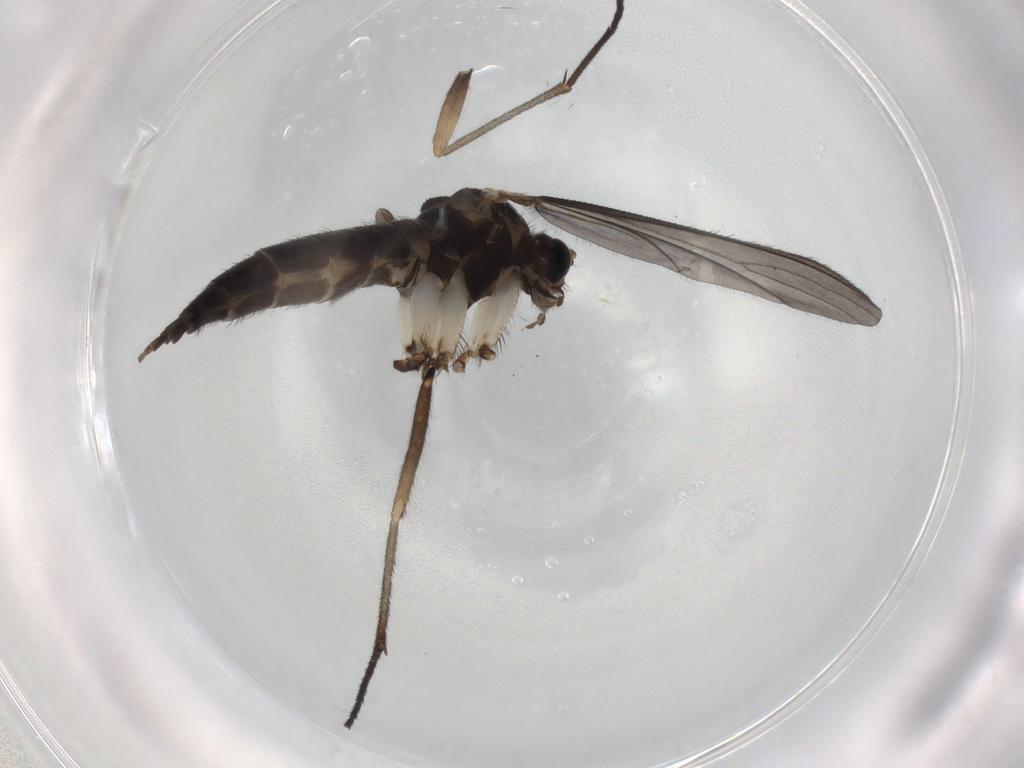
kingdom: Animalia
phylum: Arthropoda
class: Insecta
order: Diptera
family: Sciaridae
